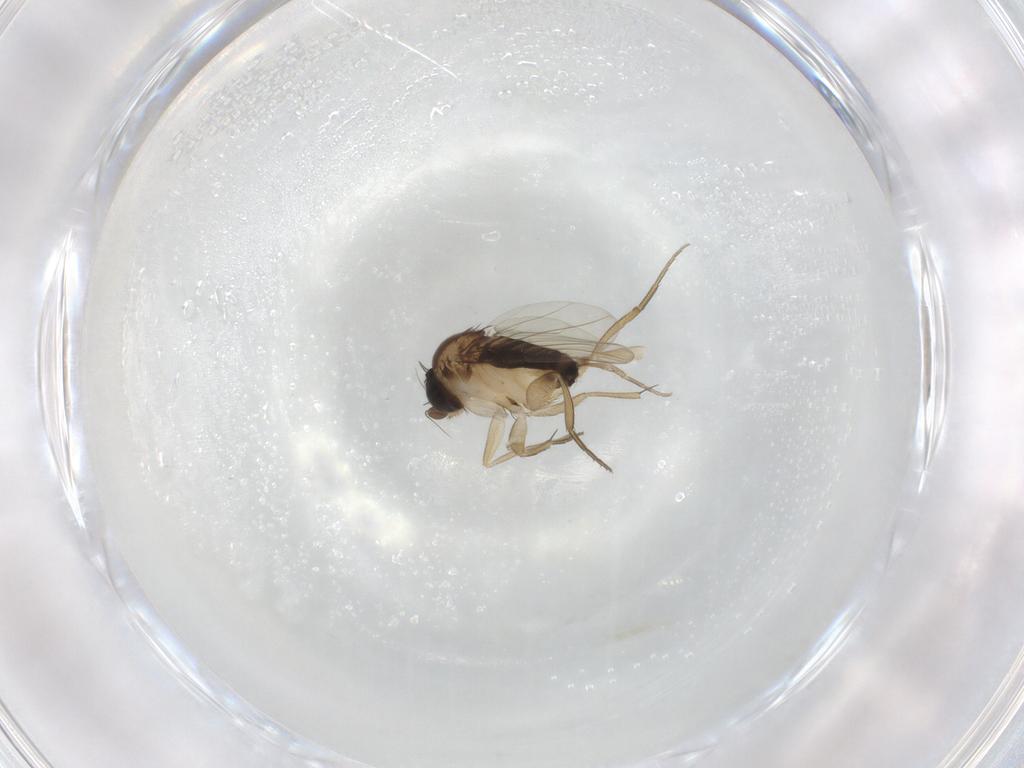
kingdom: Animalia
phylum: Arthropoda
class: Insecta
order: Diptera
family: Phoridae
